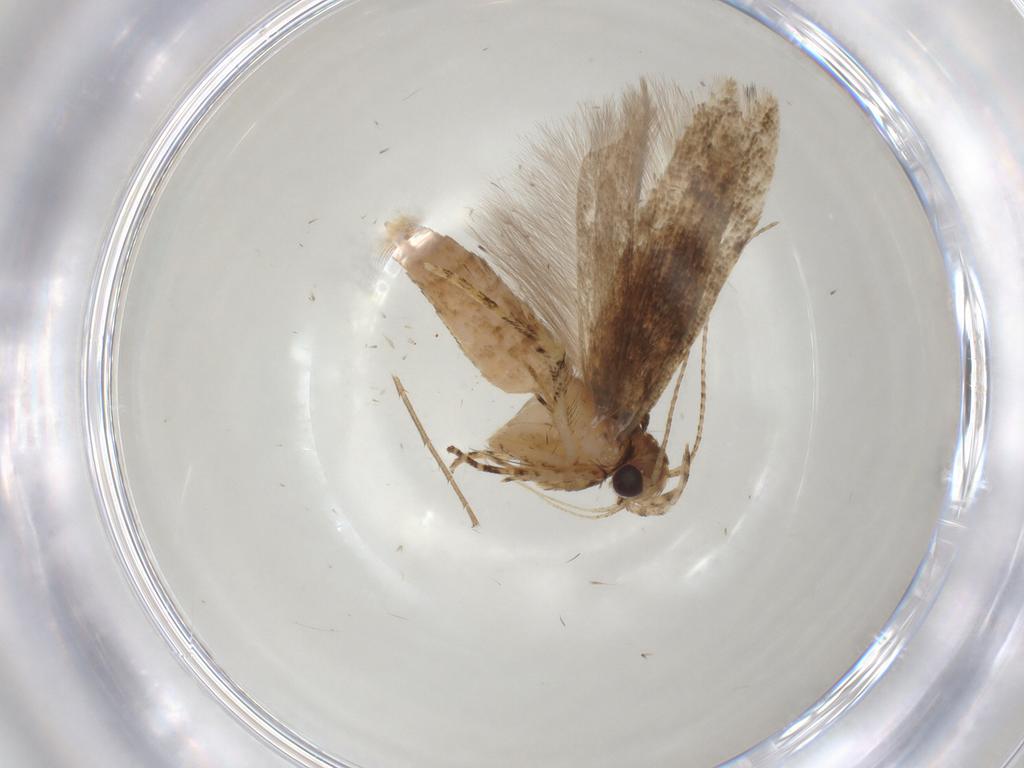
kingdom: Animalia
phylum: Arthropoda
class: Insecta
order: Lepidoptera
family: Gelechiidae
